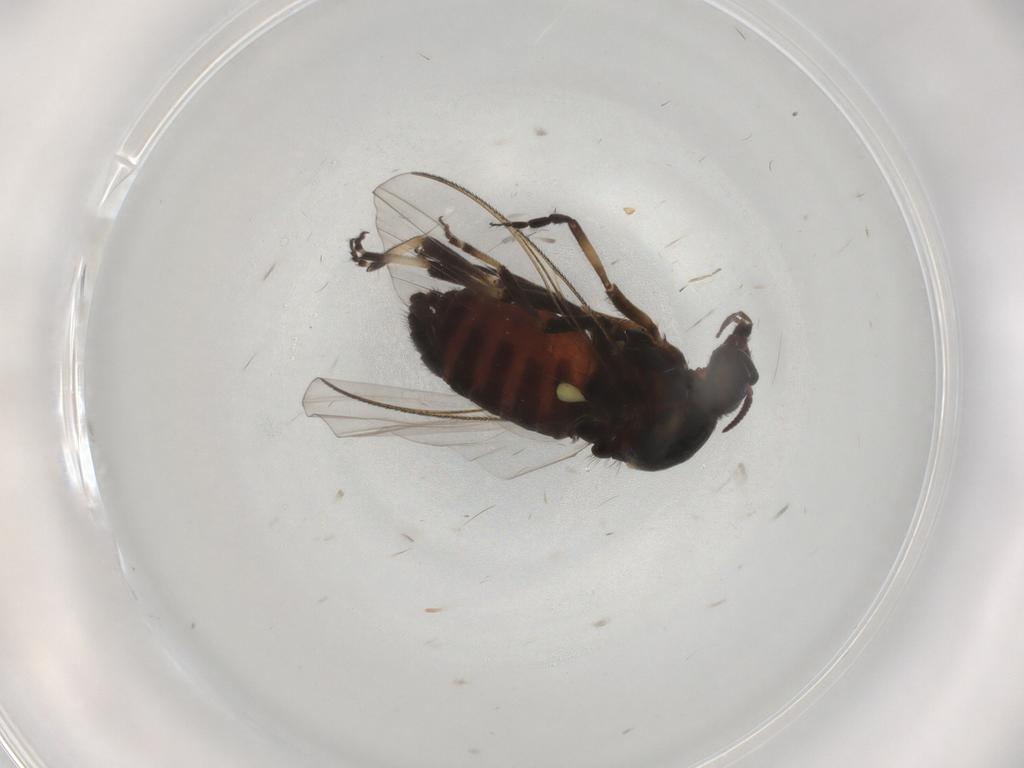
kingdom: Animalia
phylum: Arthropoda
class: Insecta
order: Diptera
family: Simuliidae
